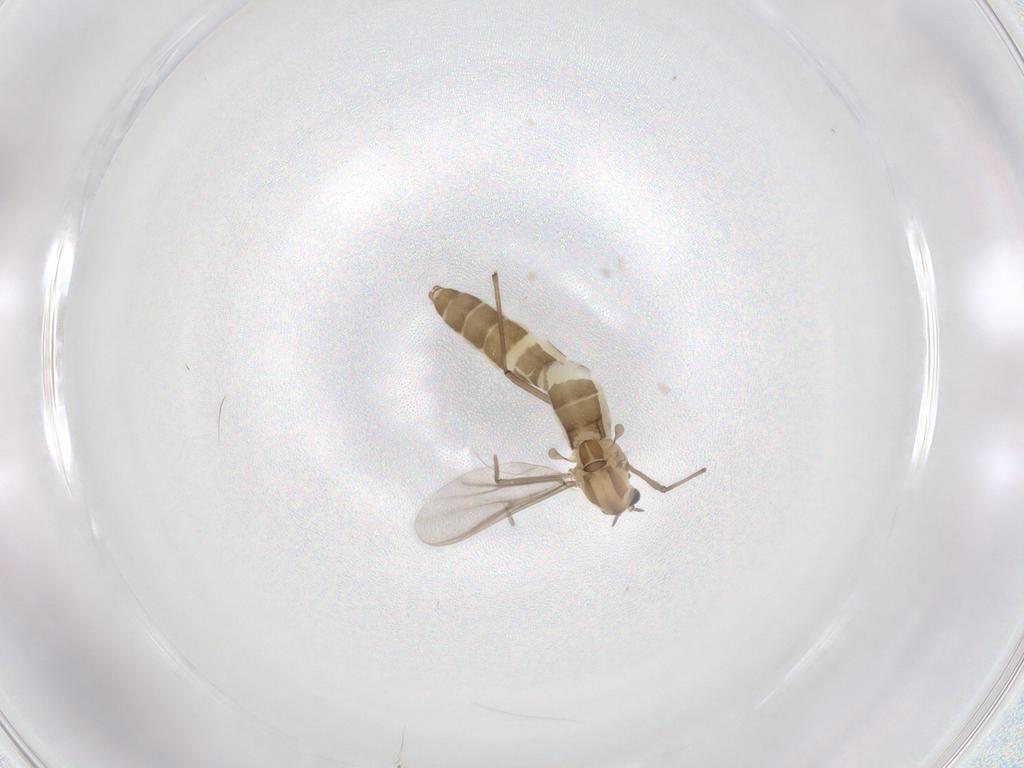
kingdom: Animalia
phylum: Arthropoda
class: Insecta
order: Diptera
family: Chironomidae
